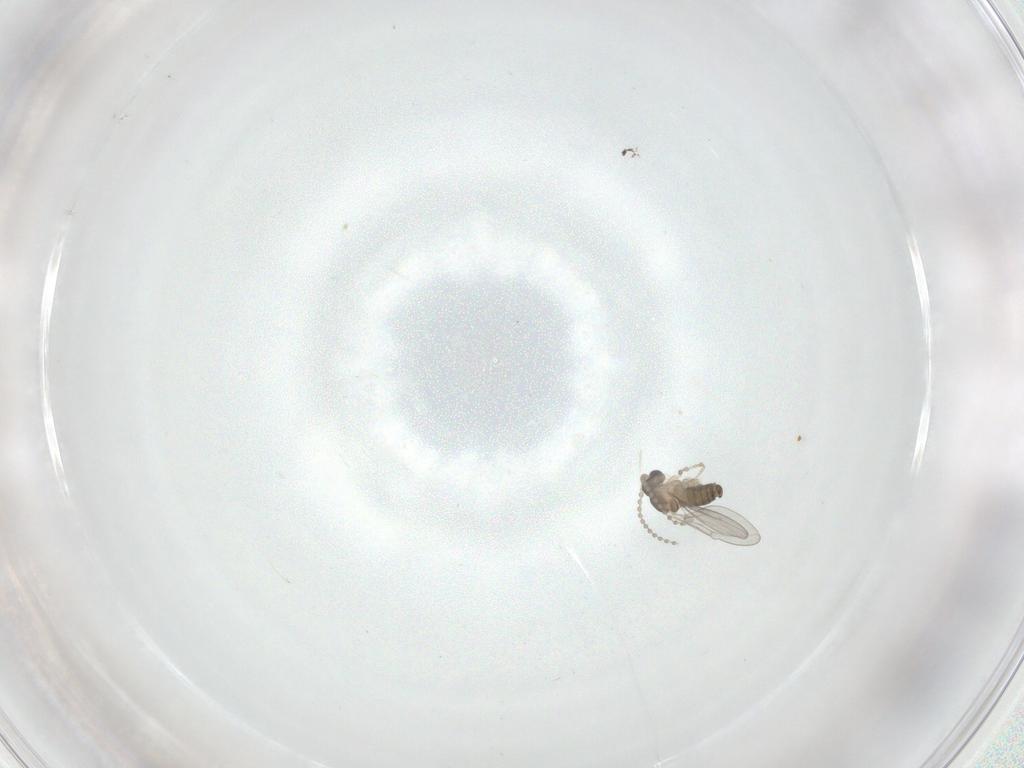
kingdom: Animalia
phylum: Arthropoda
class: Insecta
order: Diptera
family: Cecidomyiidae
